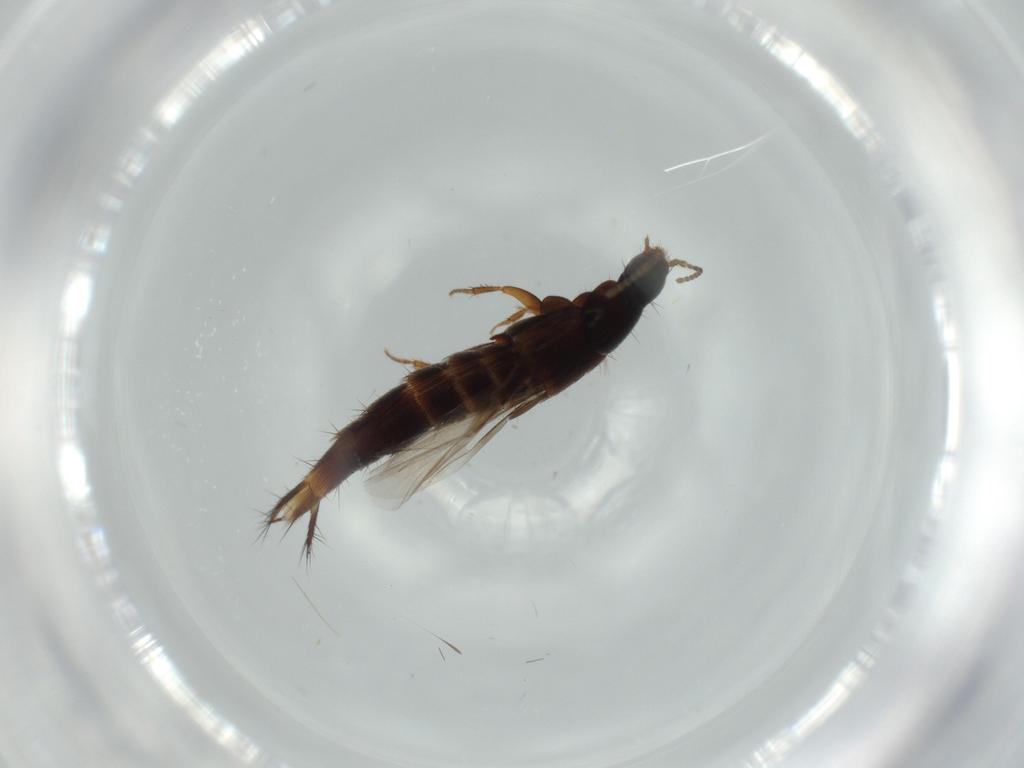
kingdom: Animalia
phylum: Arthropoda
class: Insecta
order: Coleoptera
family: Staphylinidae
